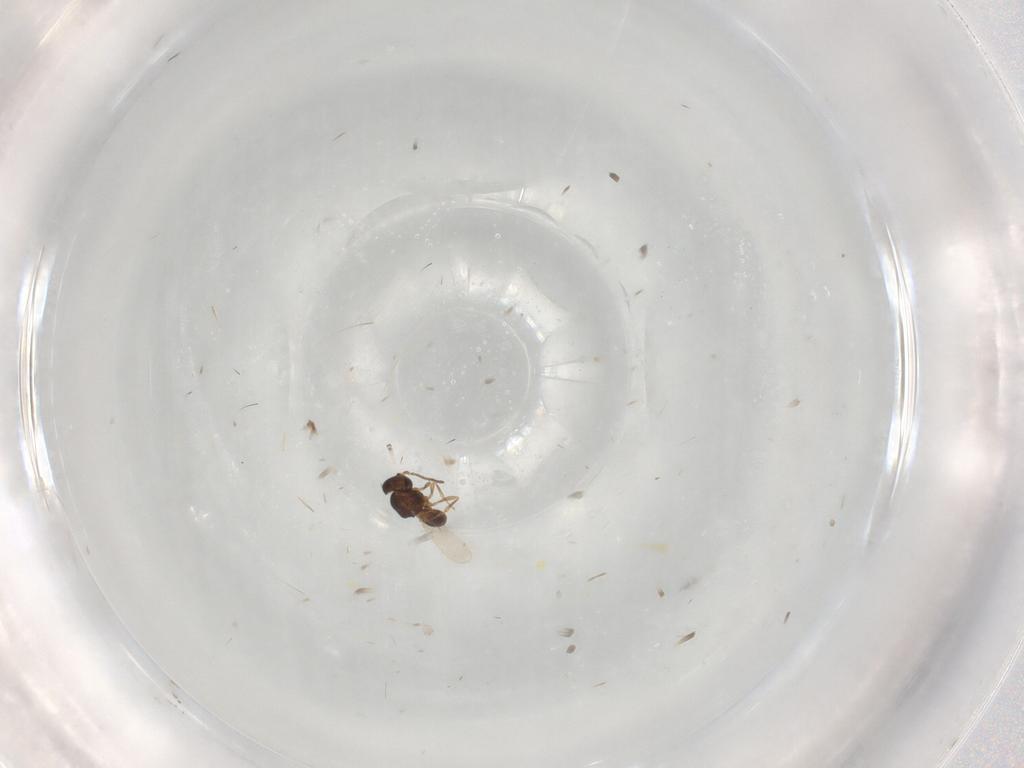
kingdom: Animalia
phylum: Arthropoda
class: Insecta
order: Hymenoptera
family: Scelionidae
